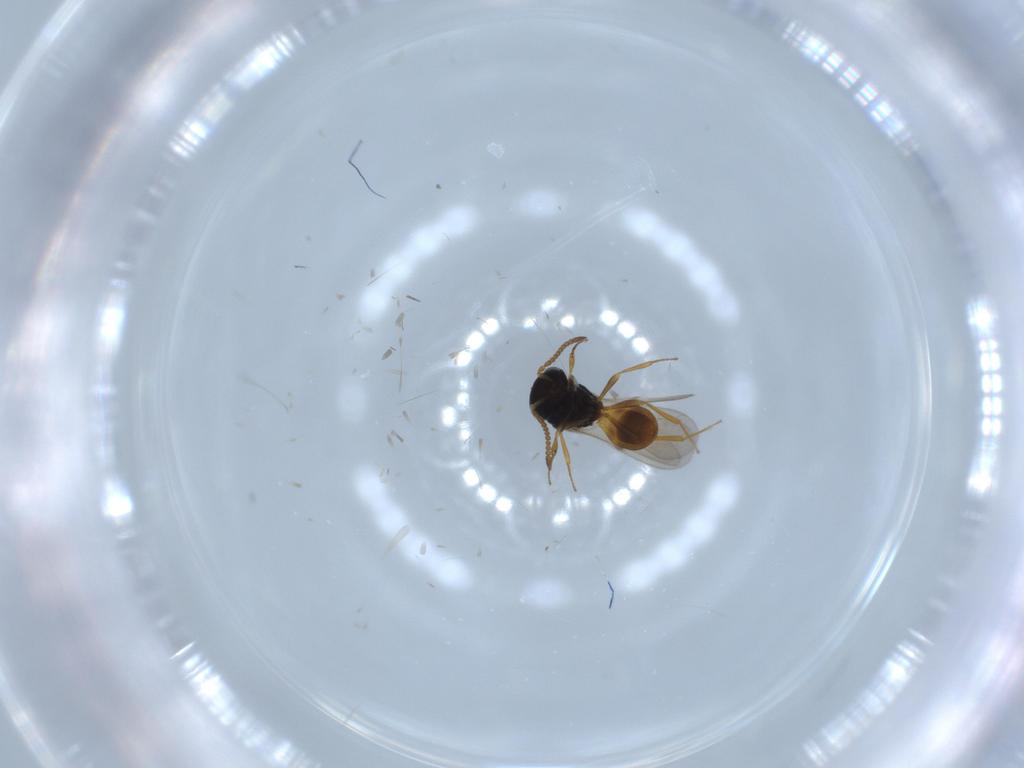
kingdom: Animalia
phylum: Arthropoda
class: Insecta
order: Hymenoptera
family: Scelionidae
